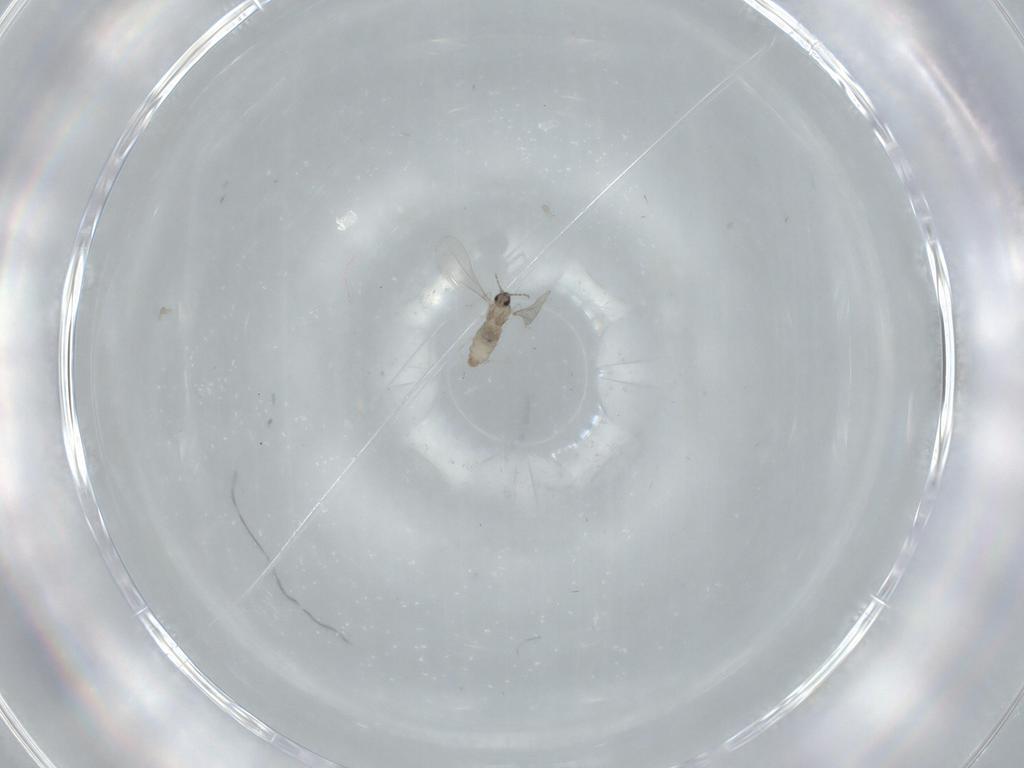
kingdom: Animalia
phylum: Arthropoda
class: Insecta
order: Diptera
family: Cecidomyiidae
